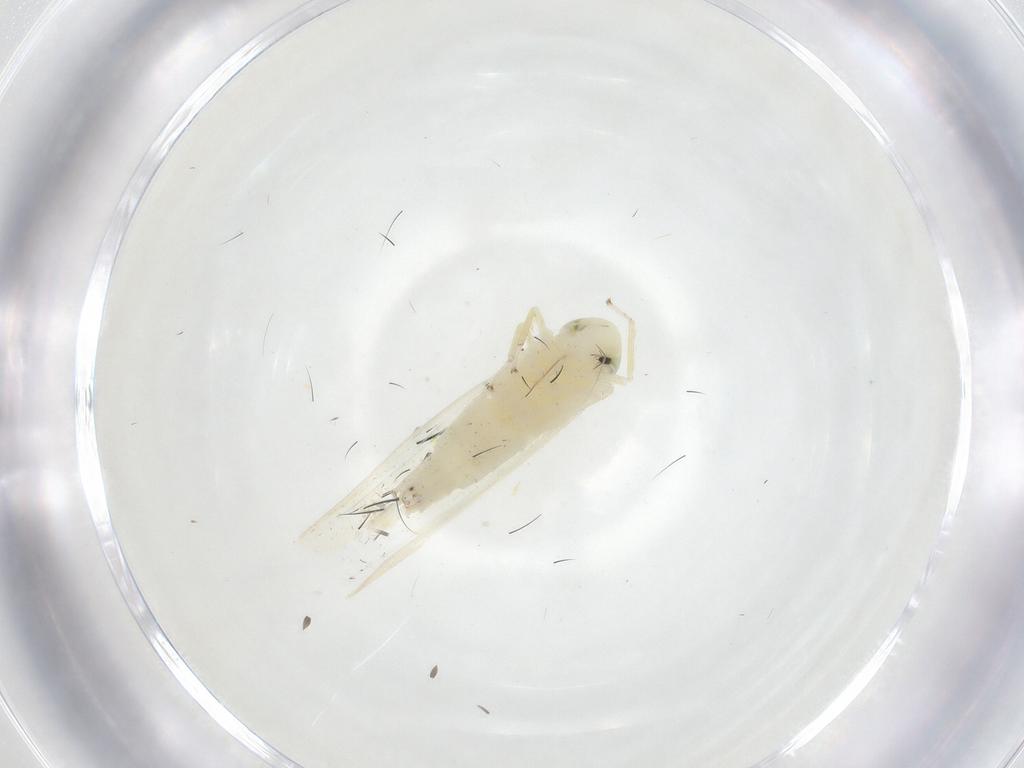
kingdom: Animalia
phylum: Arthropoda
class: Insecta
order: Hemiptera
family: Cicadellidae
